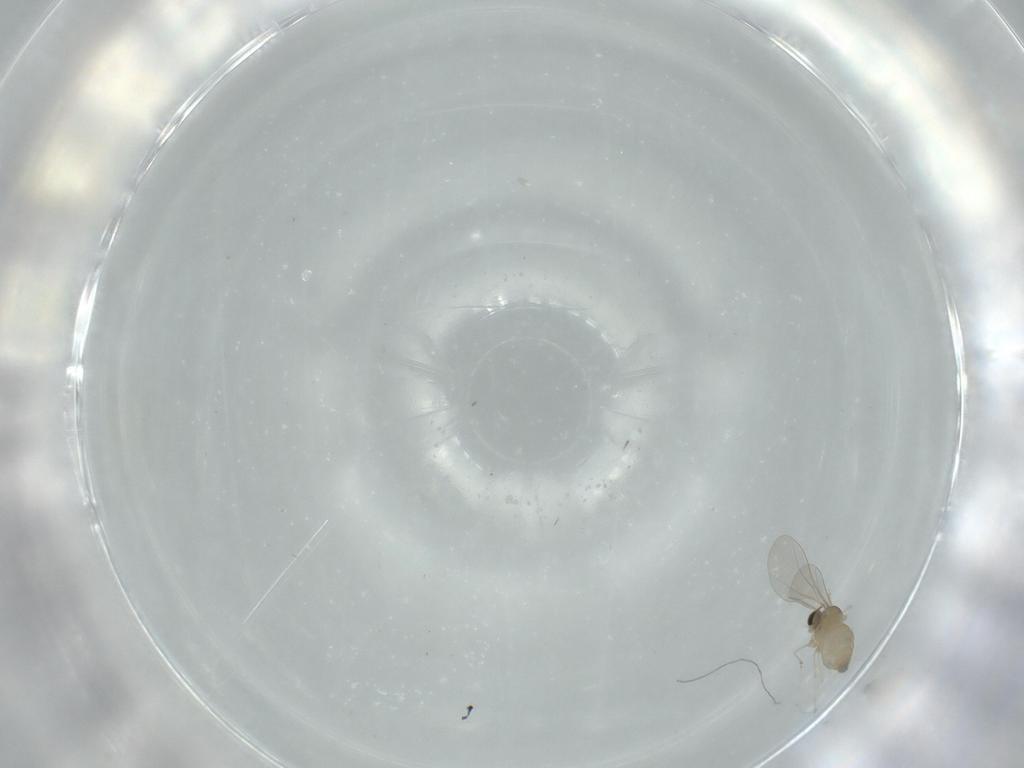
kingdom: Animalia
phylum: Arthropoda
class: Insecta
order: Diptera
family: Cecidomyiidae
